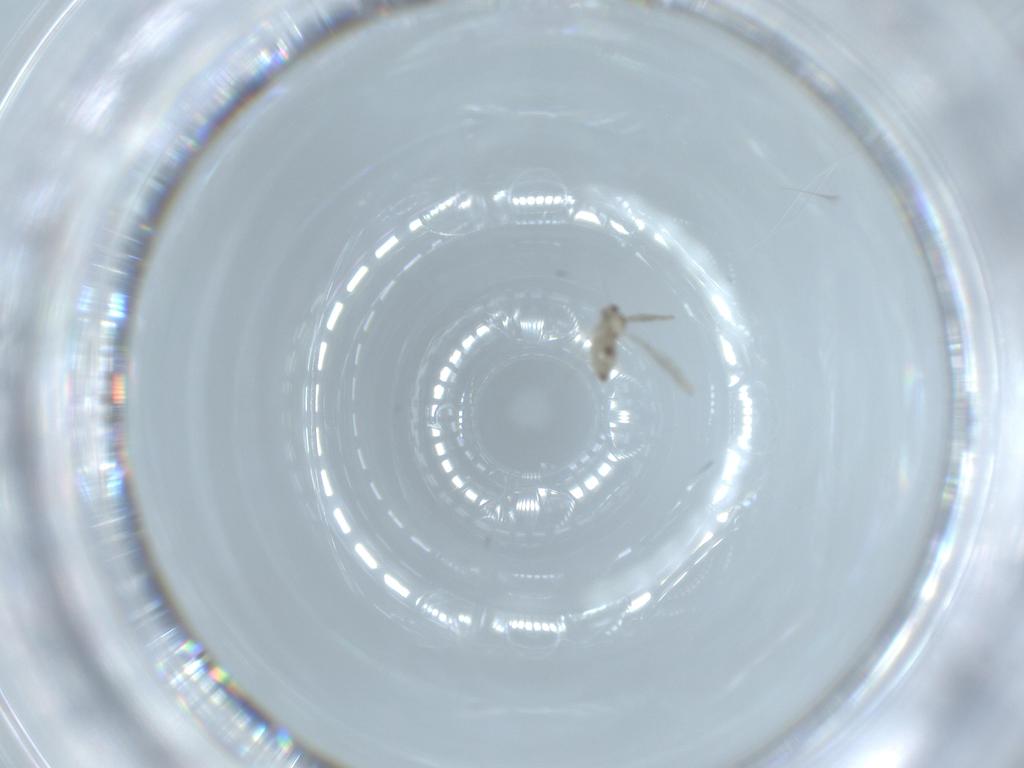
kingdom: Animalia
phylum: Arthropoda
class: Insecta
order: Diptera
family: Cecidomyiidae
